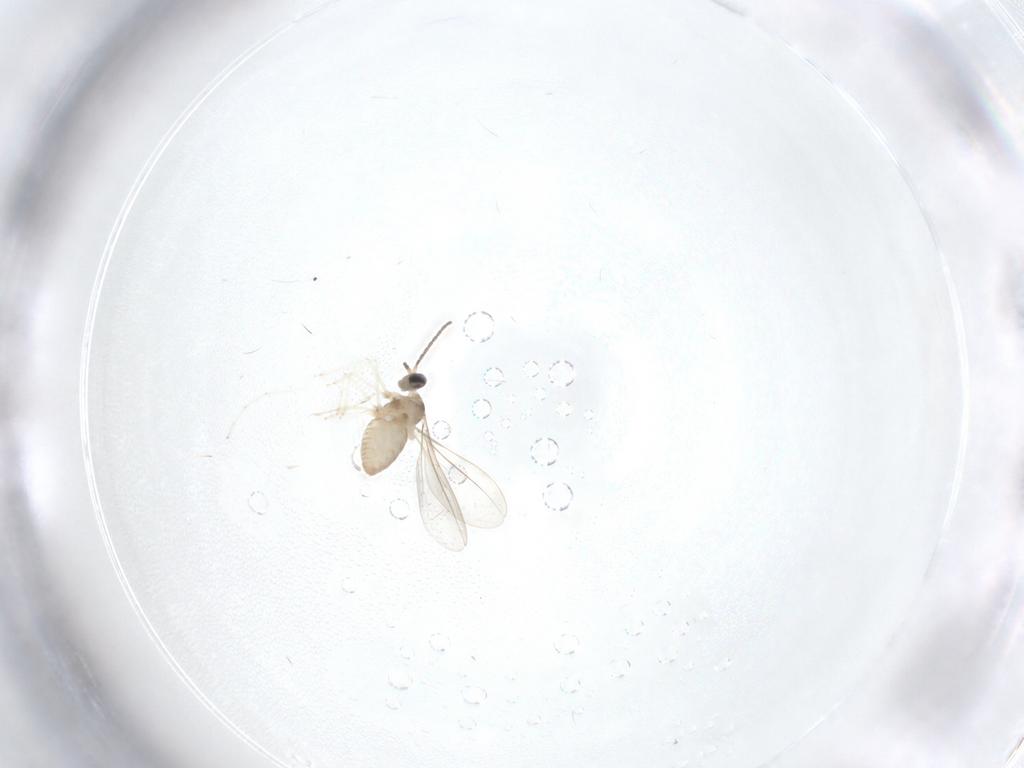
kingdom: Animalia
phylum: Arthropoda
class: Insecta
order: Diptera
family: Cecidomyiidae
